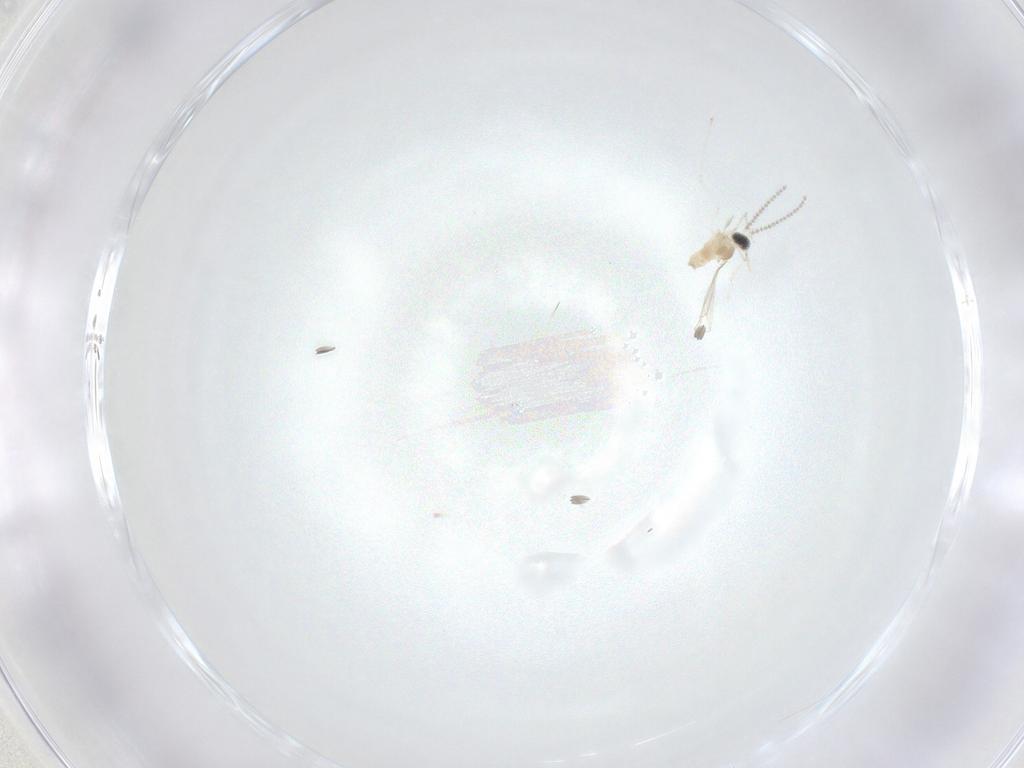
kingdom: Animalia
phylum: Arthropoda
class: Insecta
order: Diptera
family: Cecidomyiidae
